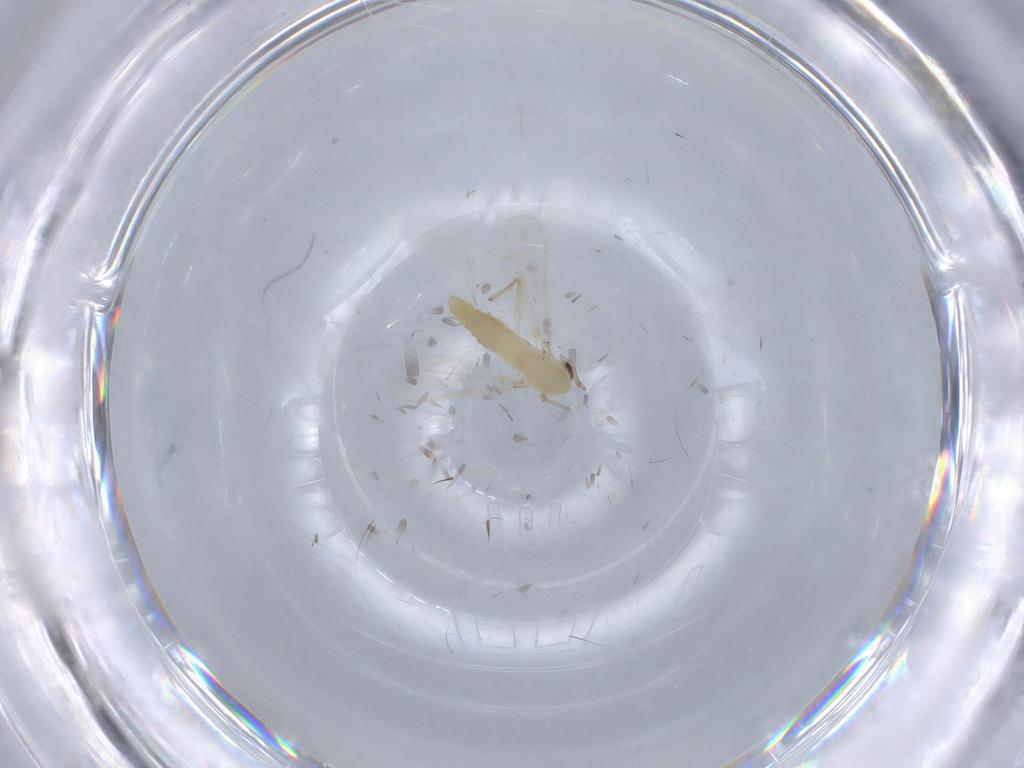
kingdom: Animalia
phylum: Arthropoda
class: Insecta
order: Diptera
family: Chironomidae
